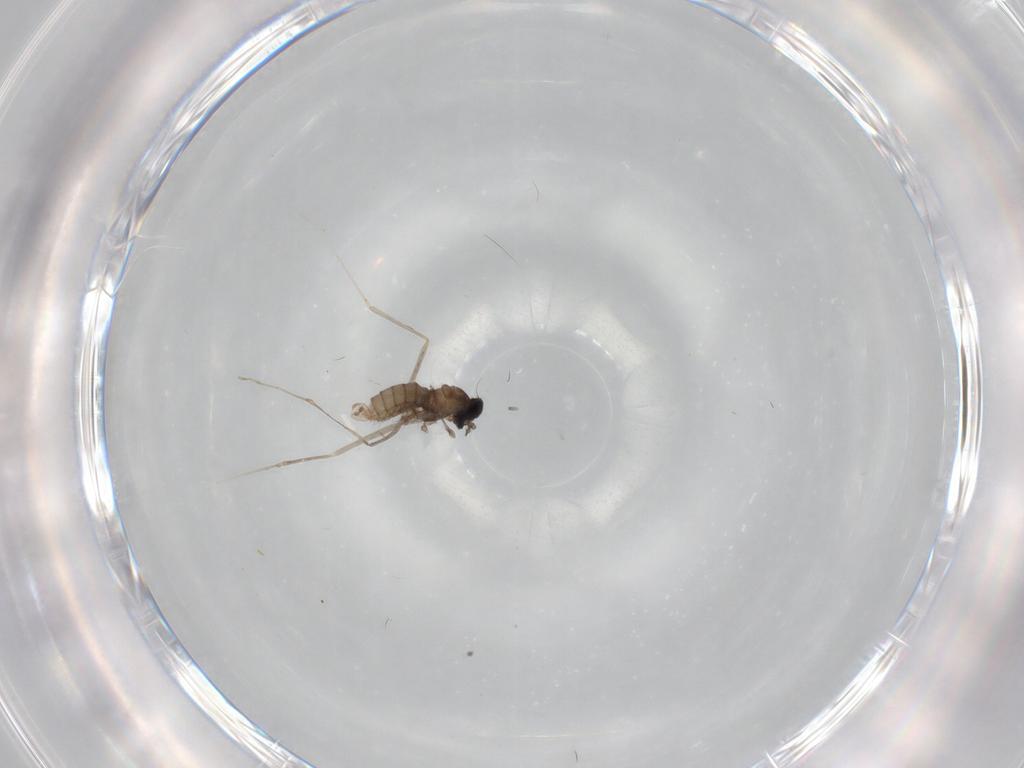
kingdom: Animalia
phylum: Arthropoda
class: Insecta
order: Diptera
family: Cecidomyiidae
